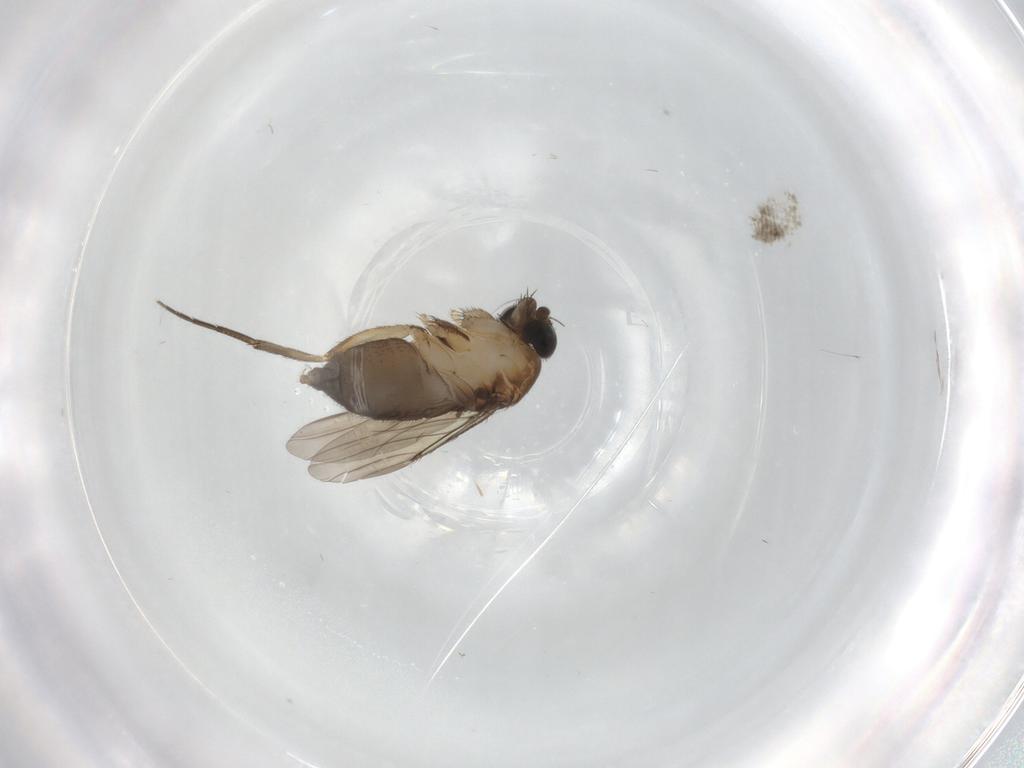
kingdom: Animalia
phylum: Arthropoda
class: Insecta
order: Diptera
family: Phoridae
